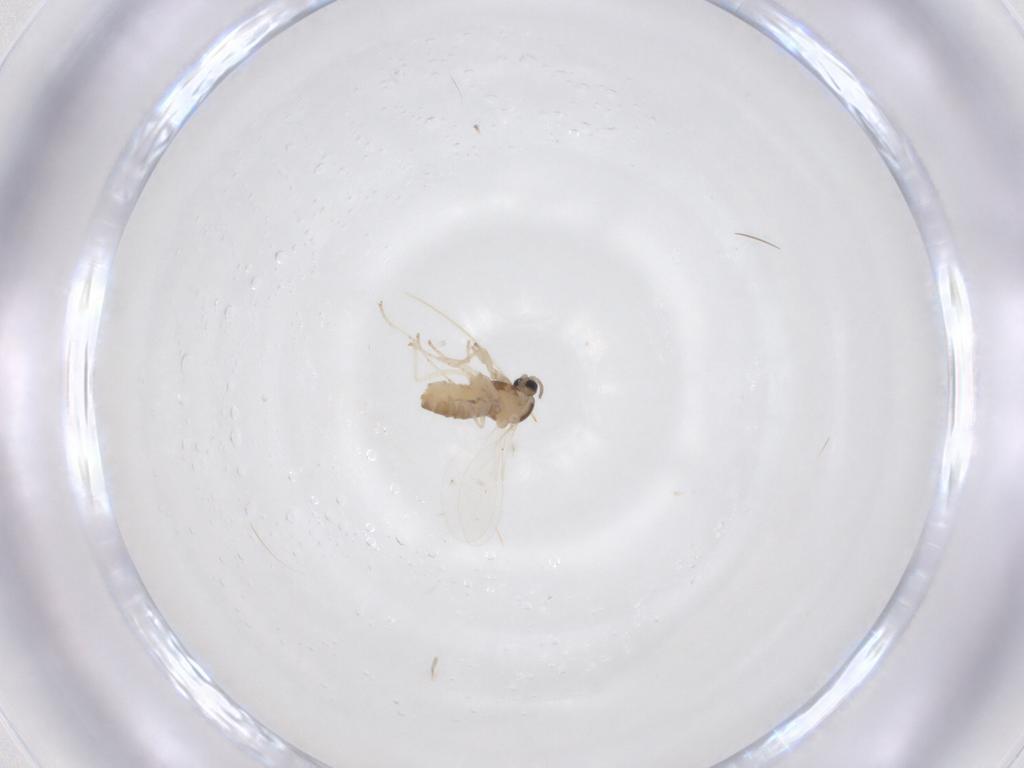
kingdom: Animalia
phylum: Arthropoda
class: Insecta
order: Diptera
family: Cecidomyiidae
